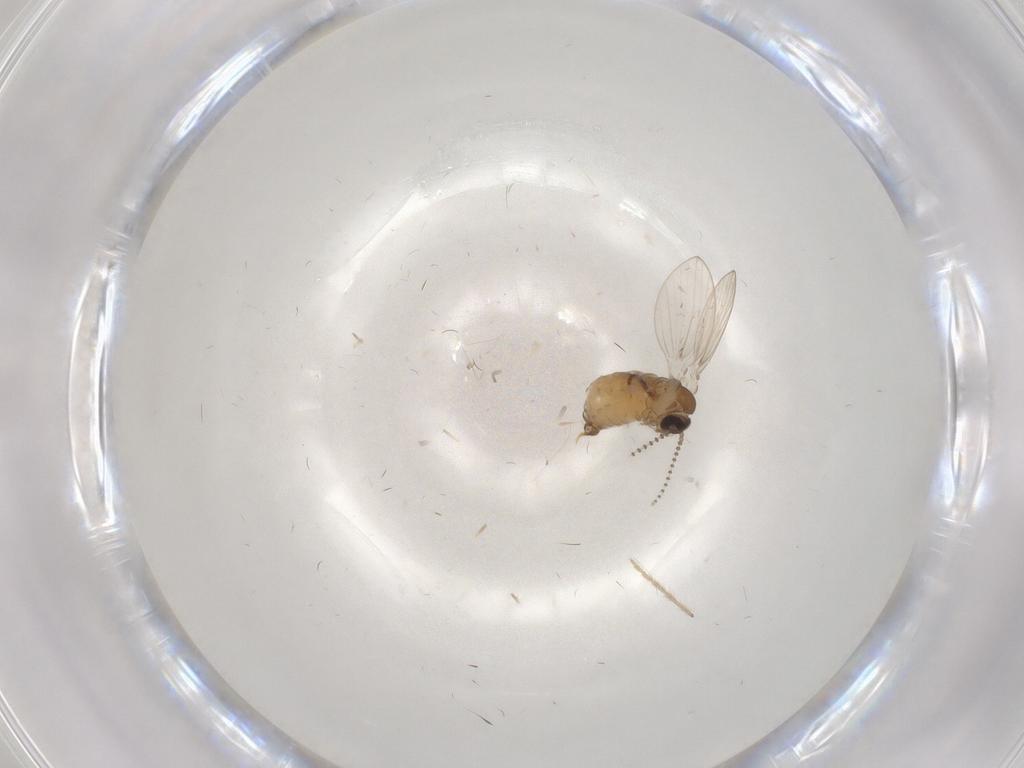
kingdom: Animalia
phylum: Arthropoda
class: Insecta
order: Diptera
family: Psychodidae
